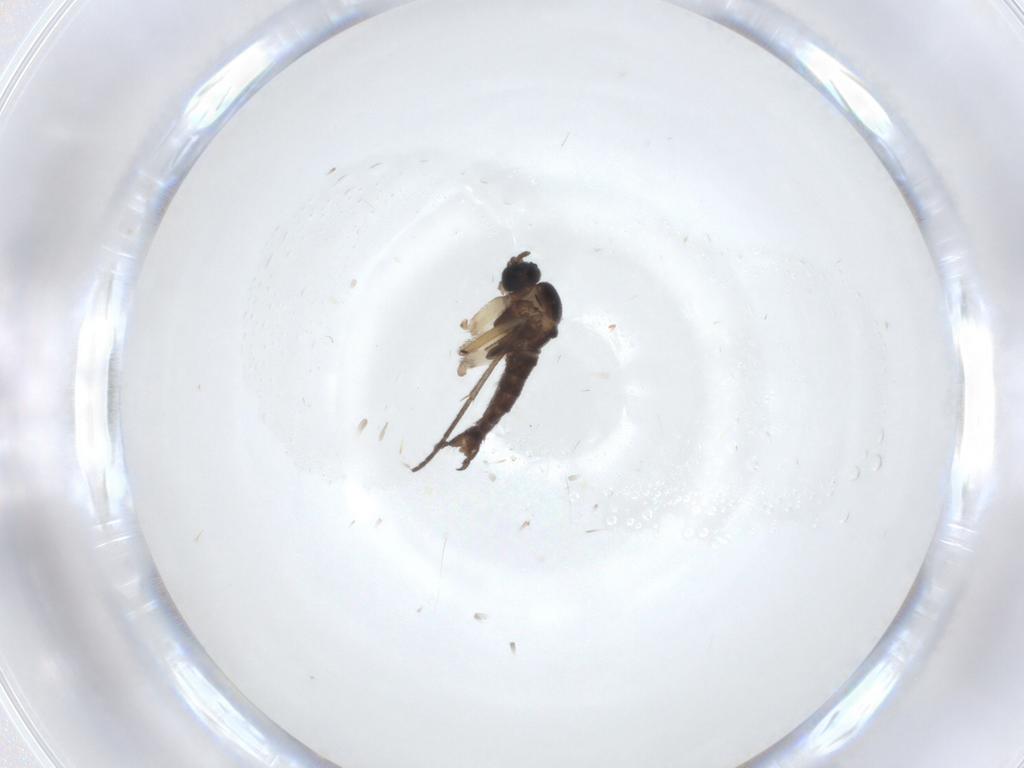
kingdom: Animalia
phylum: Arthropoda
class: Insecta
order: Diptera
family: Sciaridae
